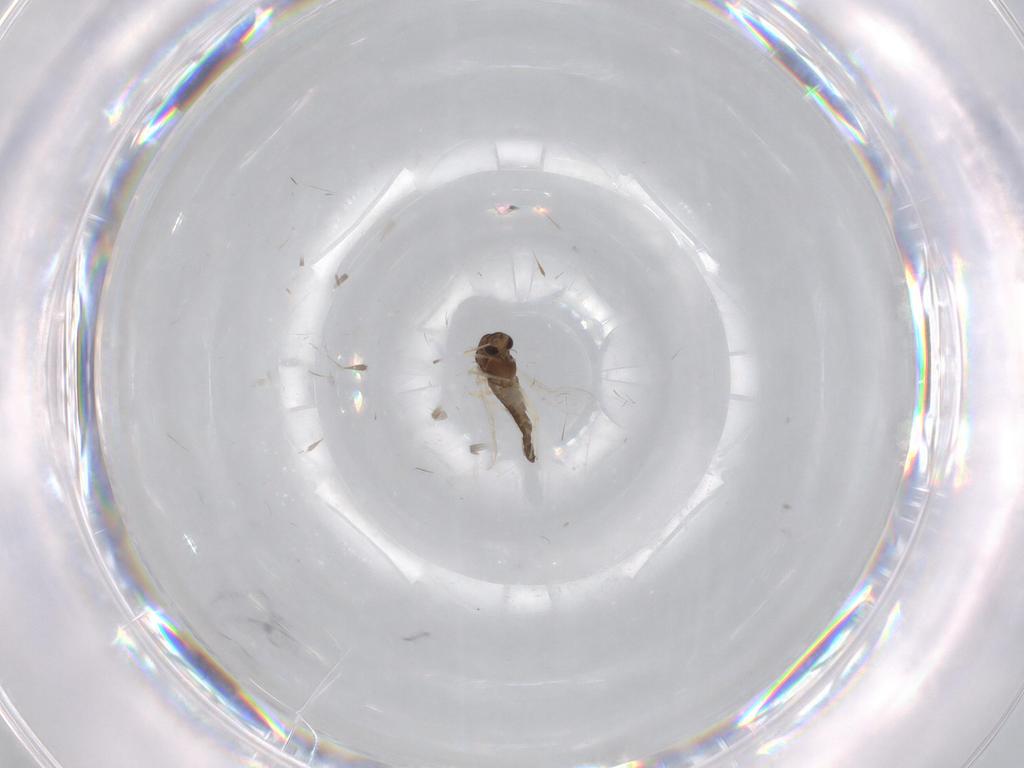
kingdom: Animalia
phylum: Arthropoda
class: Insecta
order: Diptera
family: Chironomidae
